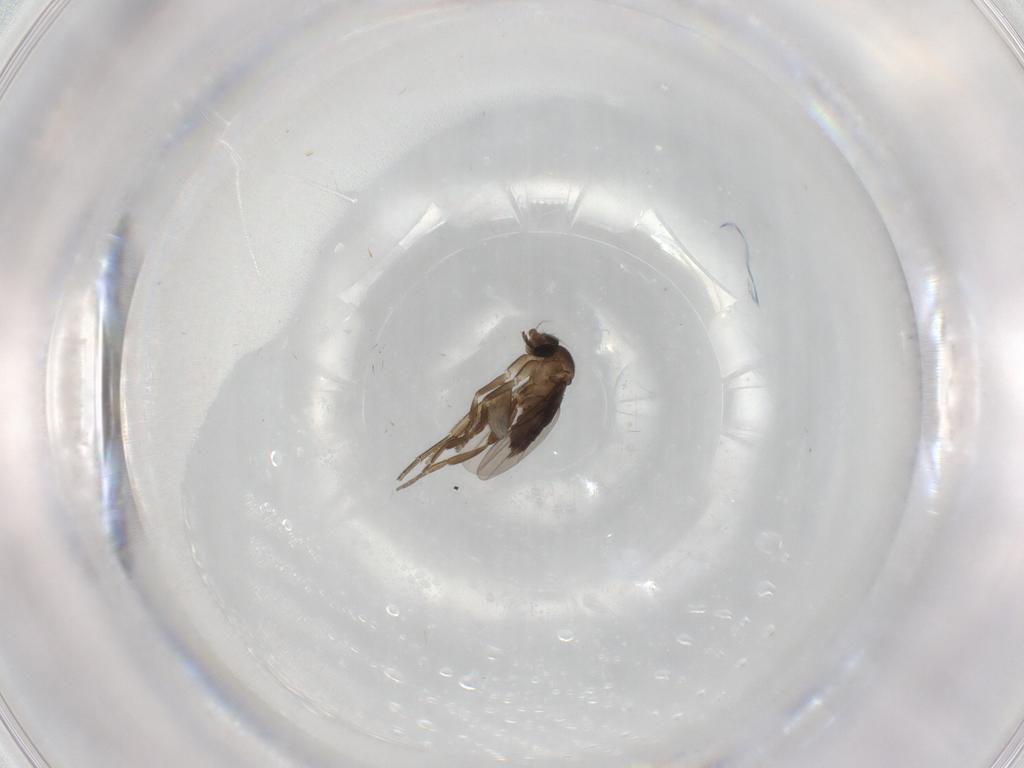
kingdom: Animalia
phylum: Arthropoda
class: Insecta
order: Diptera
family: Phoridae
